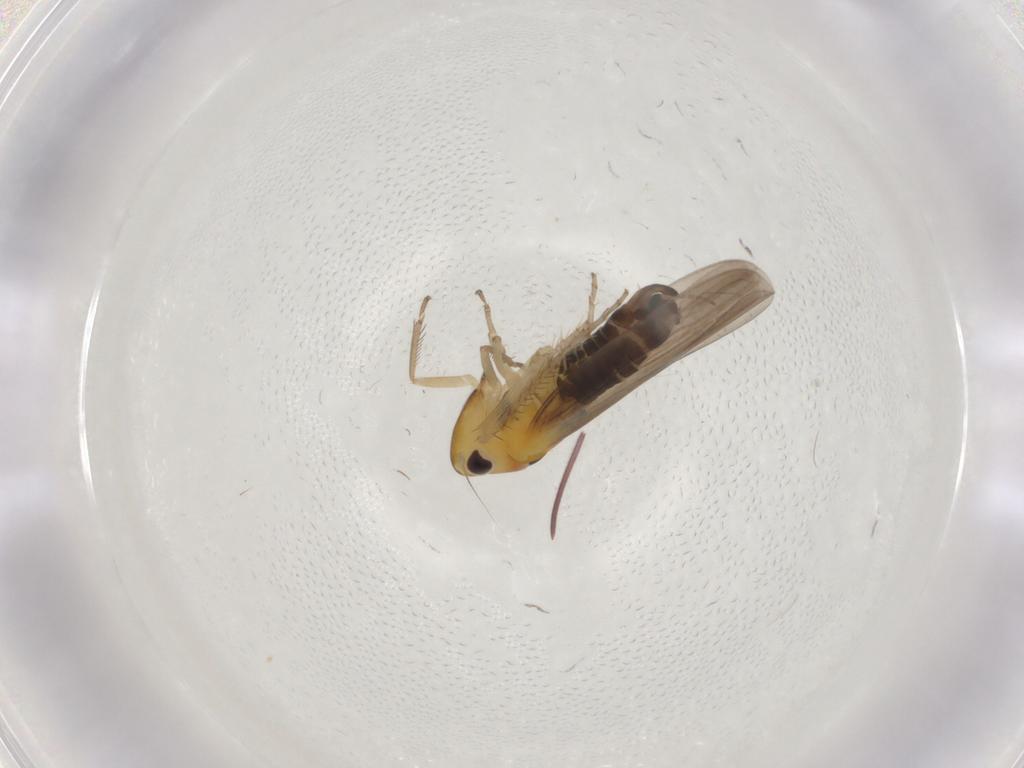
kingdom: Animalia
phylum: Arthropoda
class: Insecta
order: Hemiptera
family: Cicadellidae
